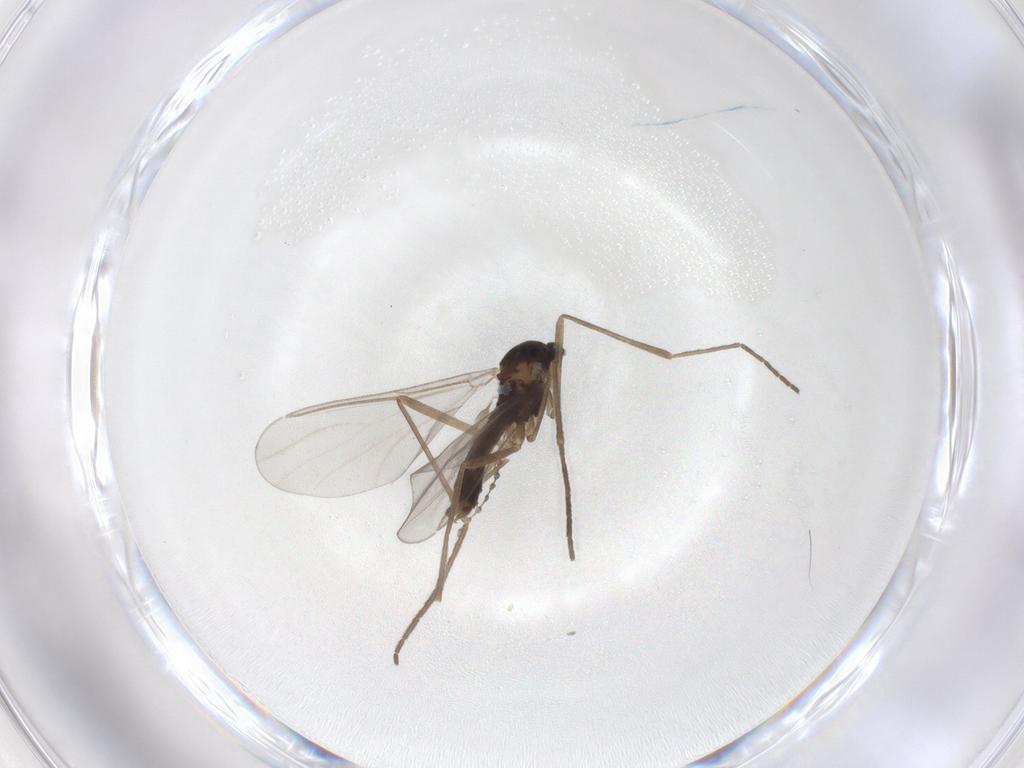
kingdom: Animalia
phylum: Arthropoda
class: Insecta
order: Diptera
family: Cecidomyiidae
